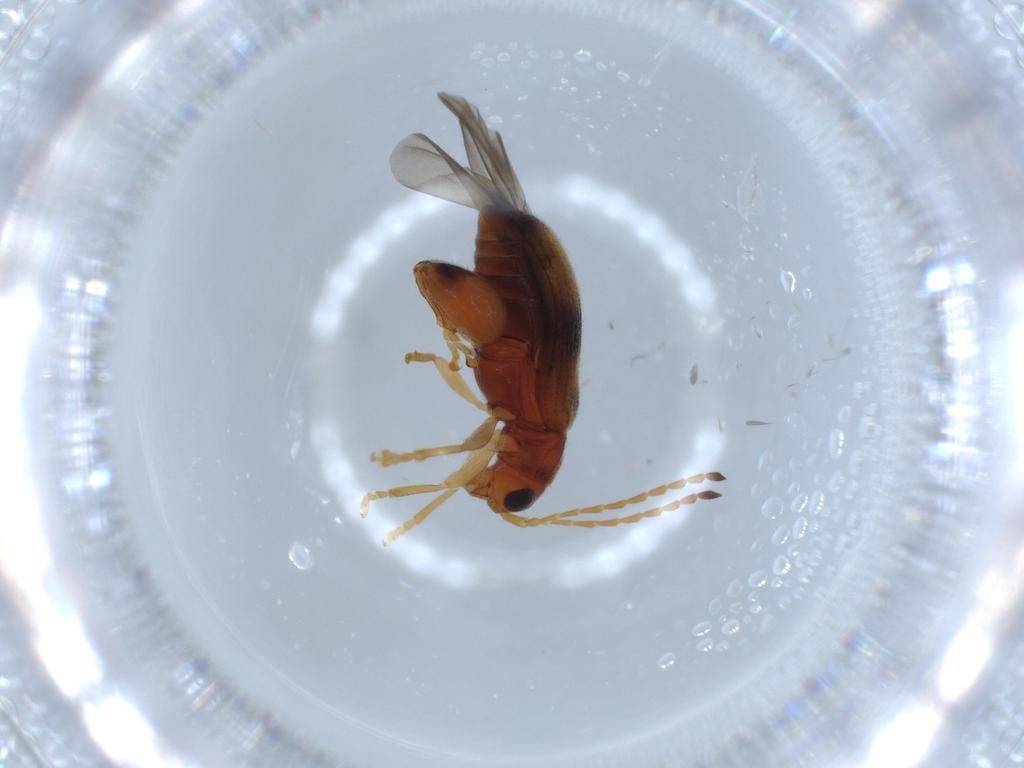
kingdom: Animalia
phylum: Arthropoda
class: Insecta
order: Coleoptera
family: Chrysomelidae
